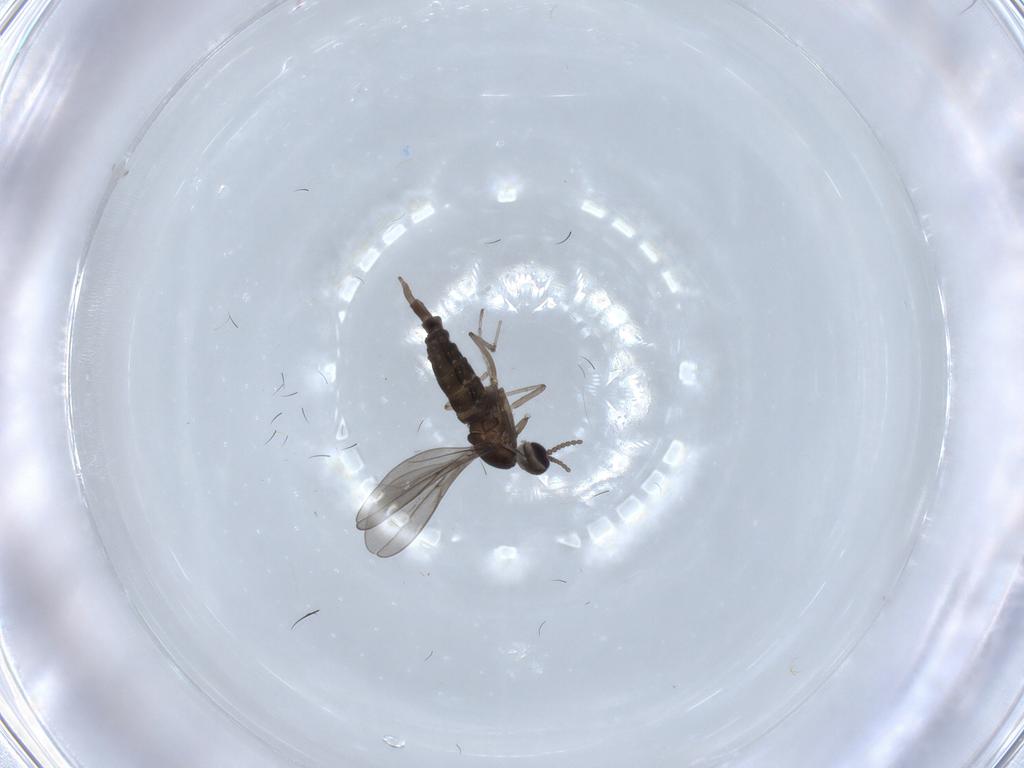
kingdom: Animalia
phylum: Arthropoda
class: Insecta
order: Diptera
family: Cecidomyiidae
